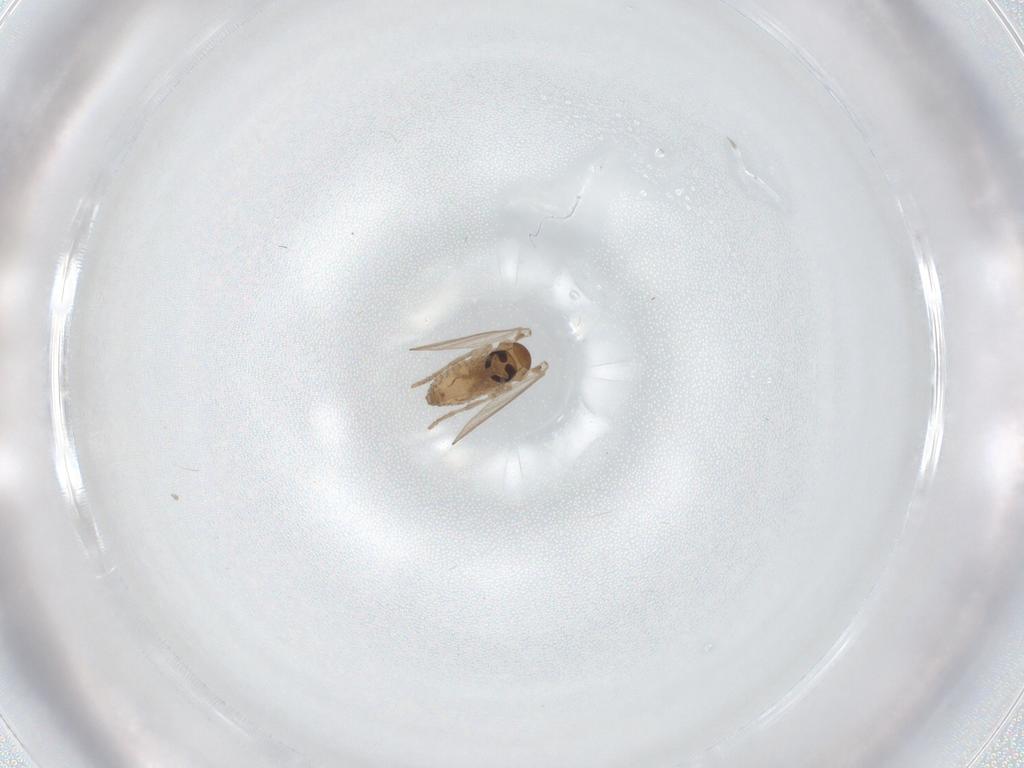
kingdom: Animalia
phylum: Arthropoda
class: Insecta
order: Diptera
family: Psychodidae
